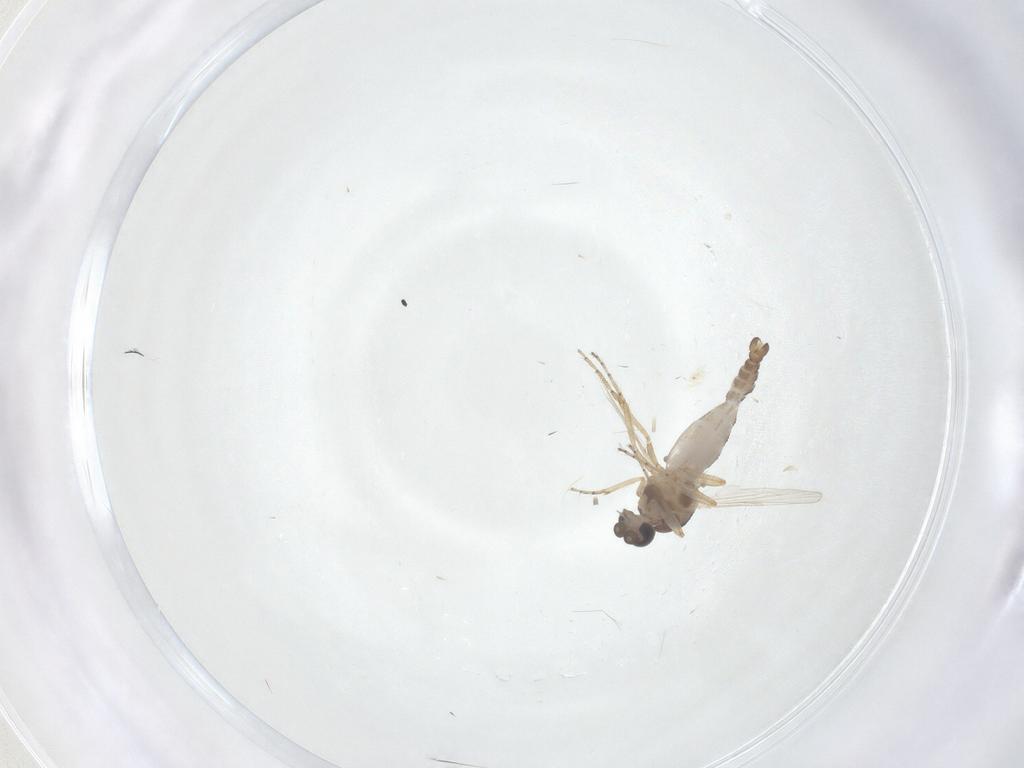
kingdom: Animalia
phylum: Arthropoda
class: Insecta
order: Diptera
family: Ceratopogonidae
